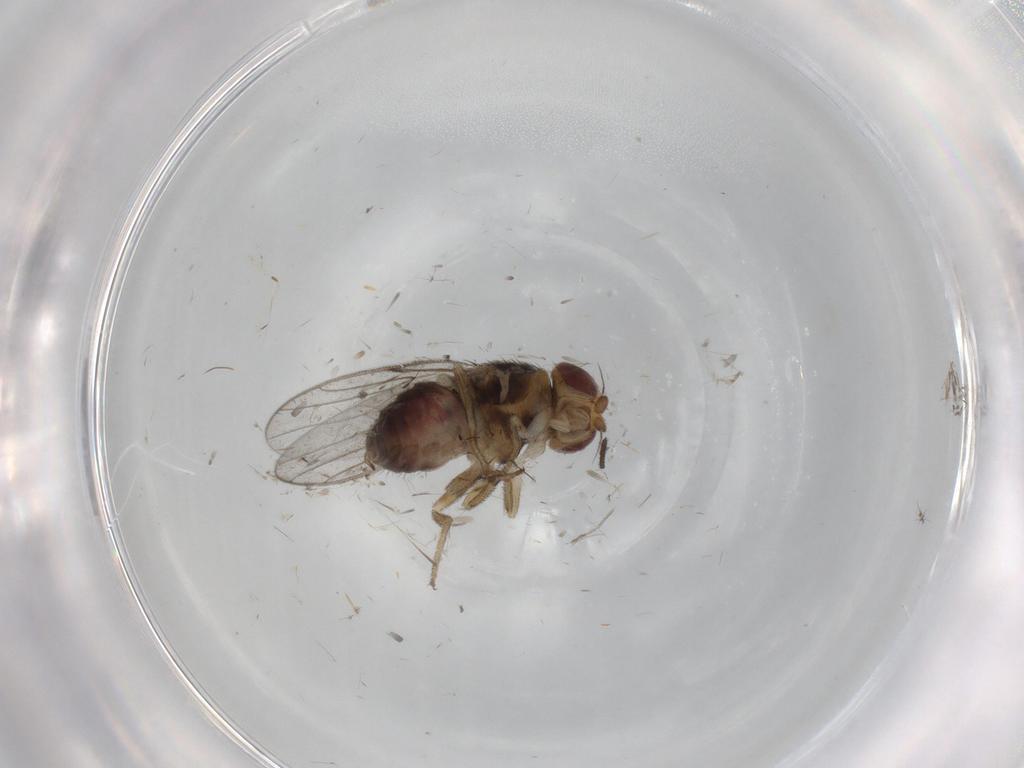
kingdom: Animalia
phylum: Arthropoda
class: Insecta
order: Diptera
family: Chloropidae
